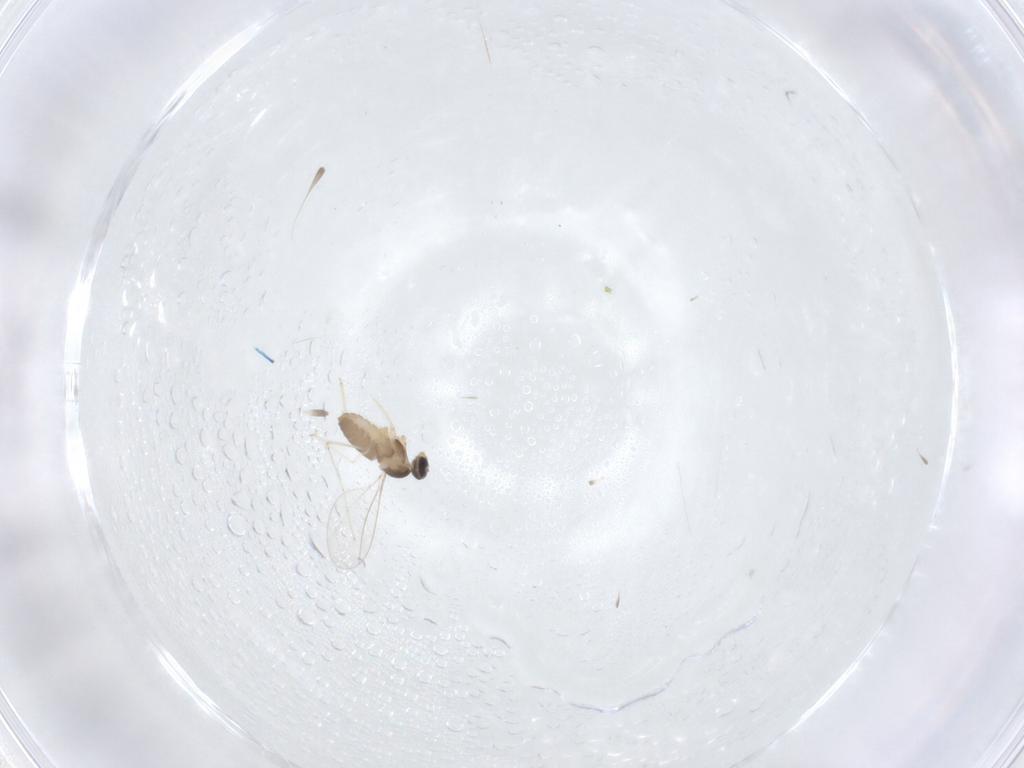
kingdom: Animalia
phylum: Arthropoda
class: Insecta
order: Diptera
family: Cecidomyiidae
